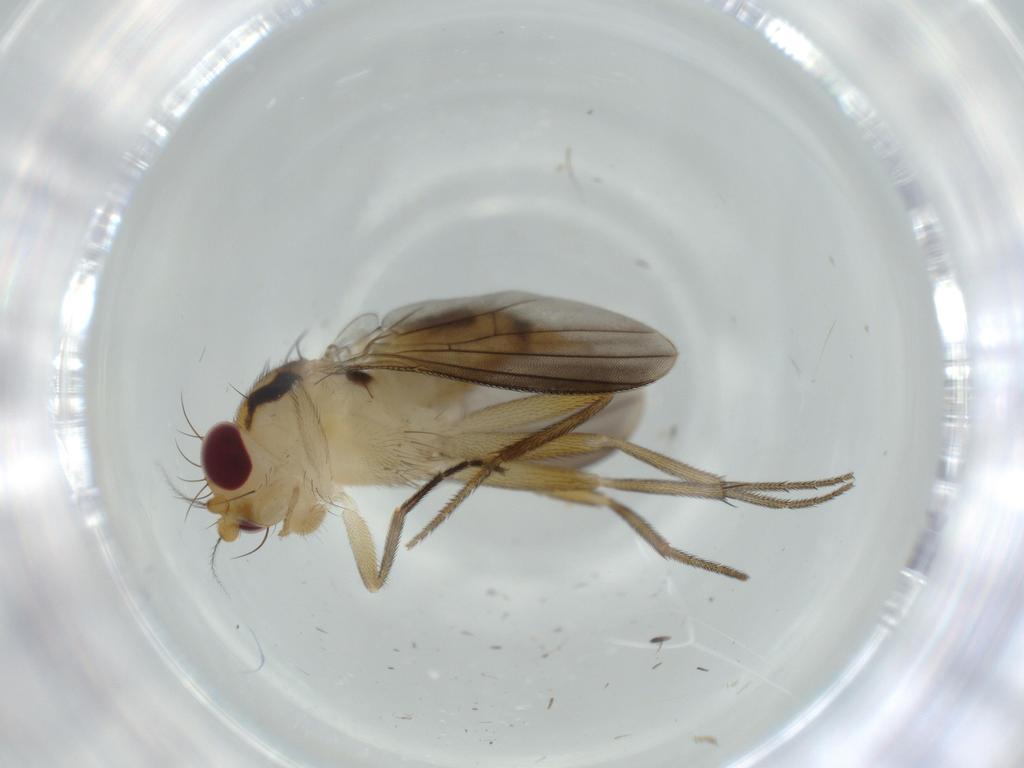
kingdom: Animalia
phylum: Arthropoda
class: Insecta
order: Diptera
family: Clusiidae
